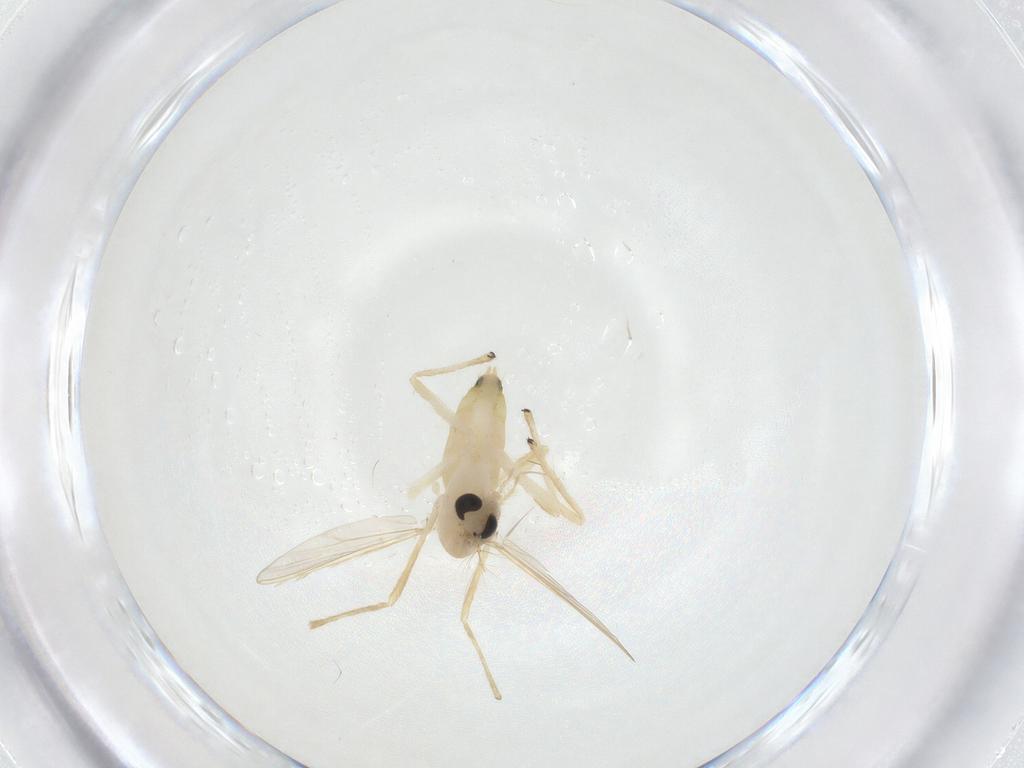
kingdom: Animalia
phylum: Arthropoda
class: Insecta
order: Diptera
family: Chironomidae
